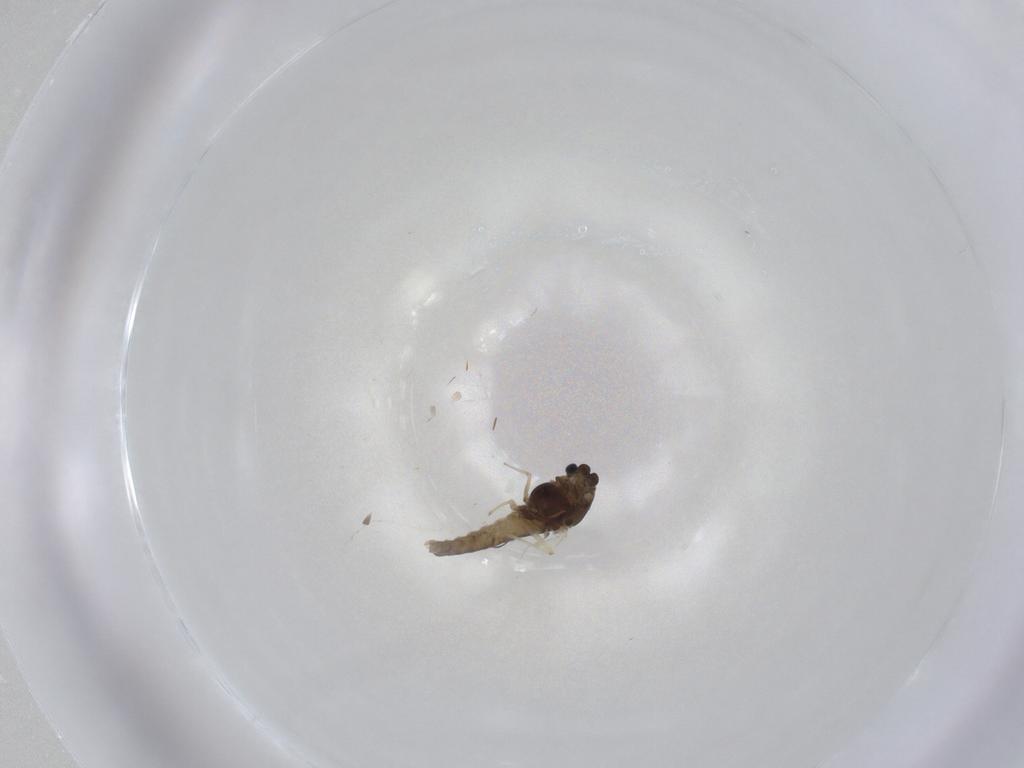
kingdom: Animalia
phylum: Arthropoda
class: Insecta
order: Diptera
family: Chironomidae
